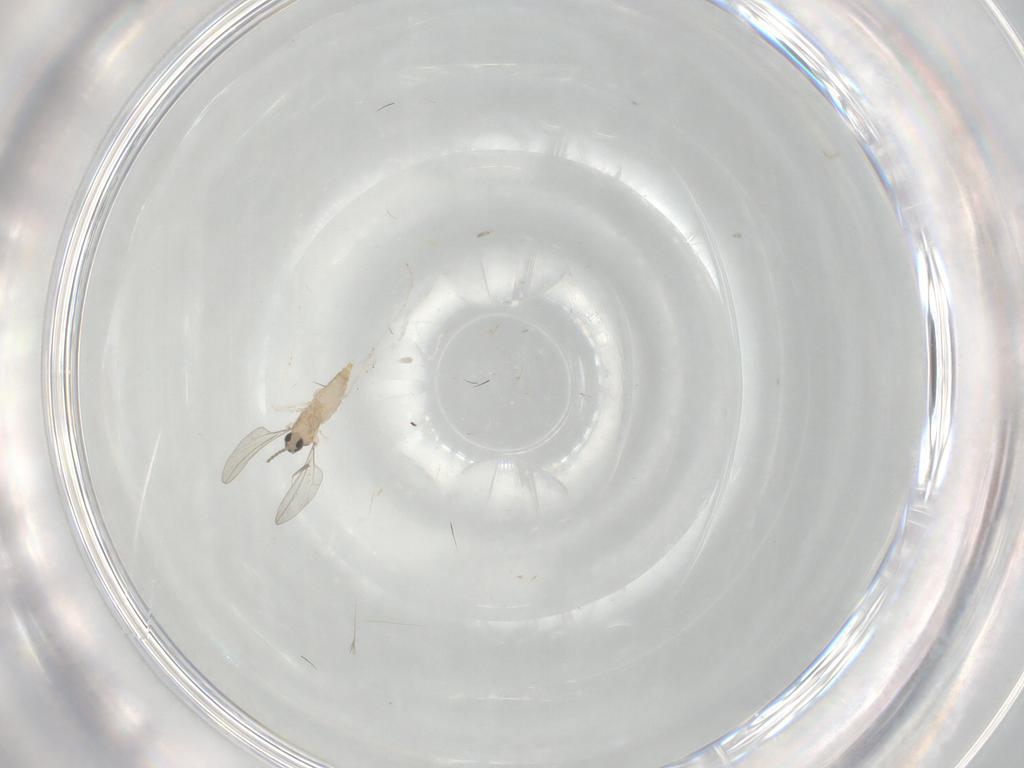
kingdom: Animalia
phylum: Arthropoda
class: Insecta
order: Diptera
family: Cecidomyiidae
